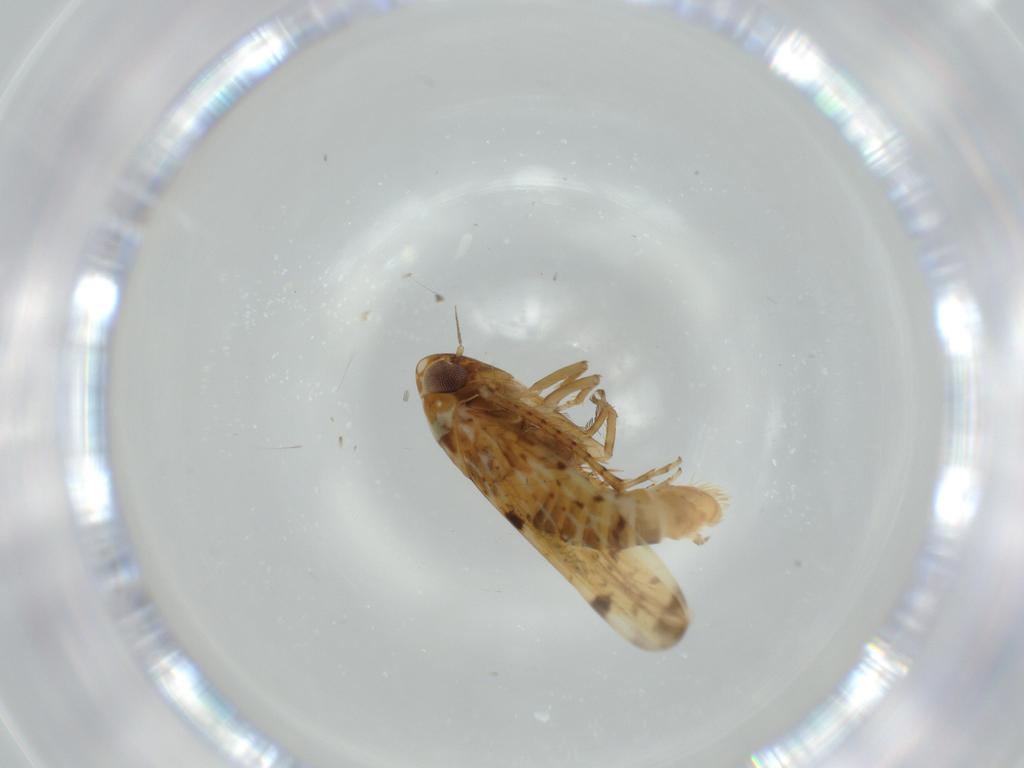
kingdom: Animalia
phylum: Arthropoda
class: Insecta
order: Hemiptera
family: Cicadellidae
